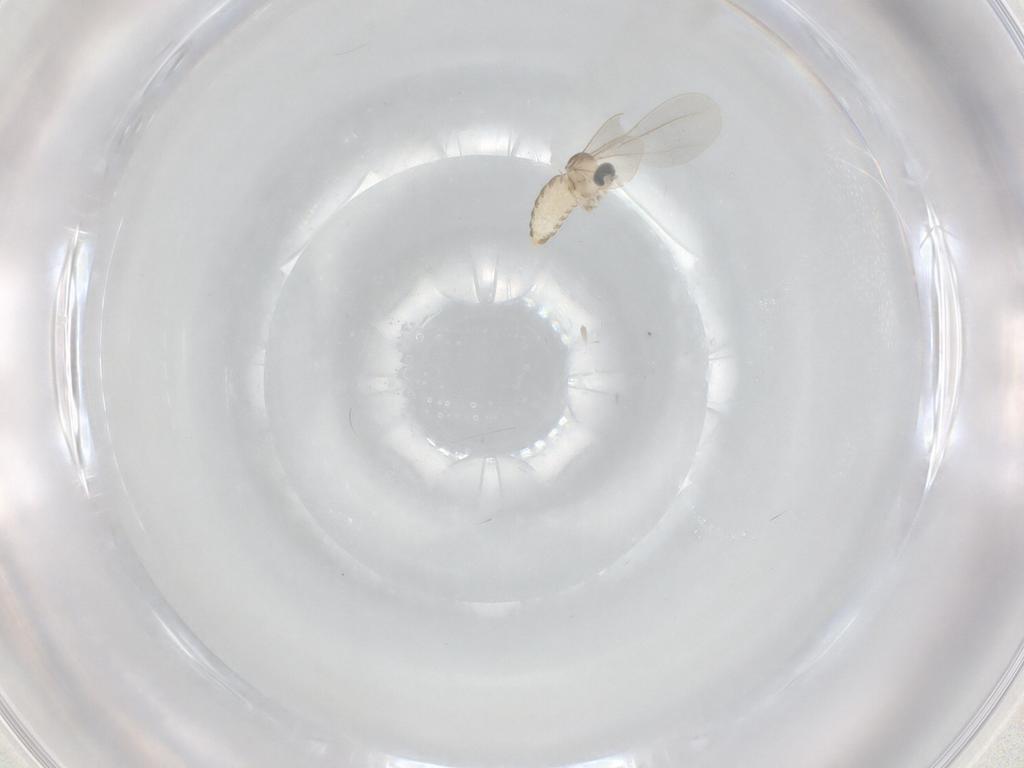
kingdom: Animalia
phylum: Arthropoda
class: Insecta
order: Diptera
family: Cecidomyiidae
